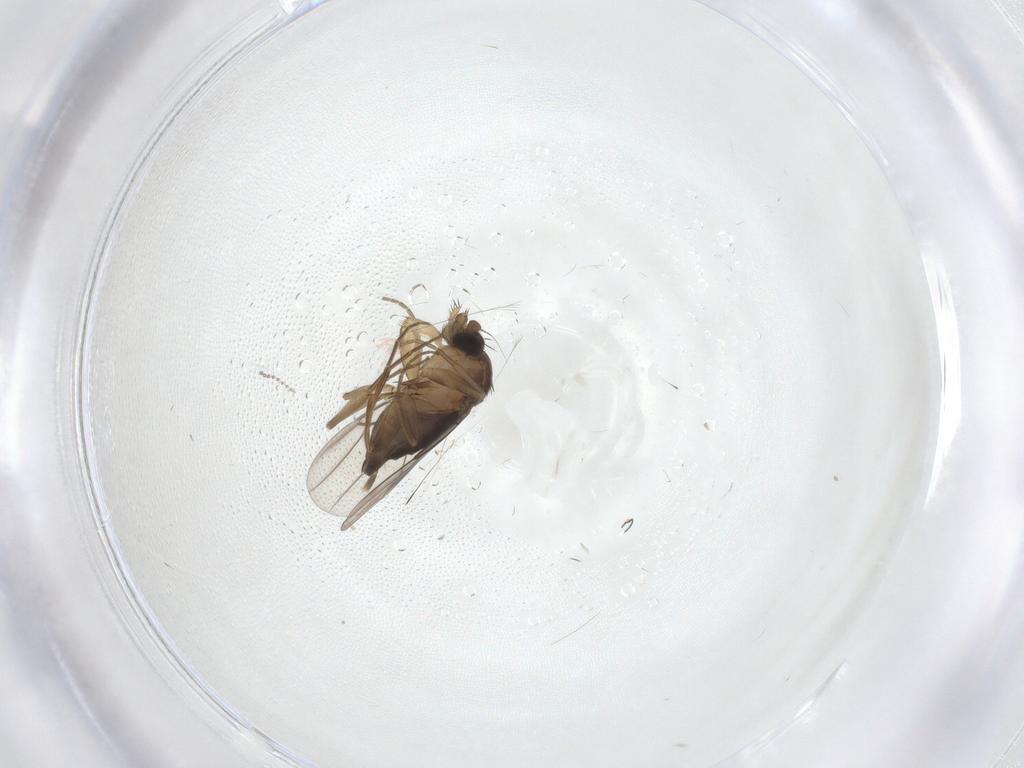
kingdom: Animalia
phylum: Arthropoda
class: Insecta
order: Diptera
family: Phoridae
